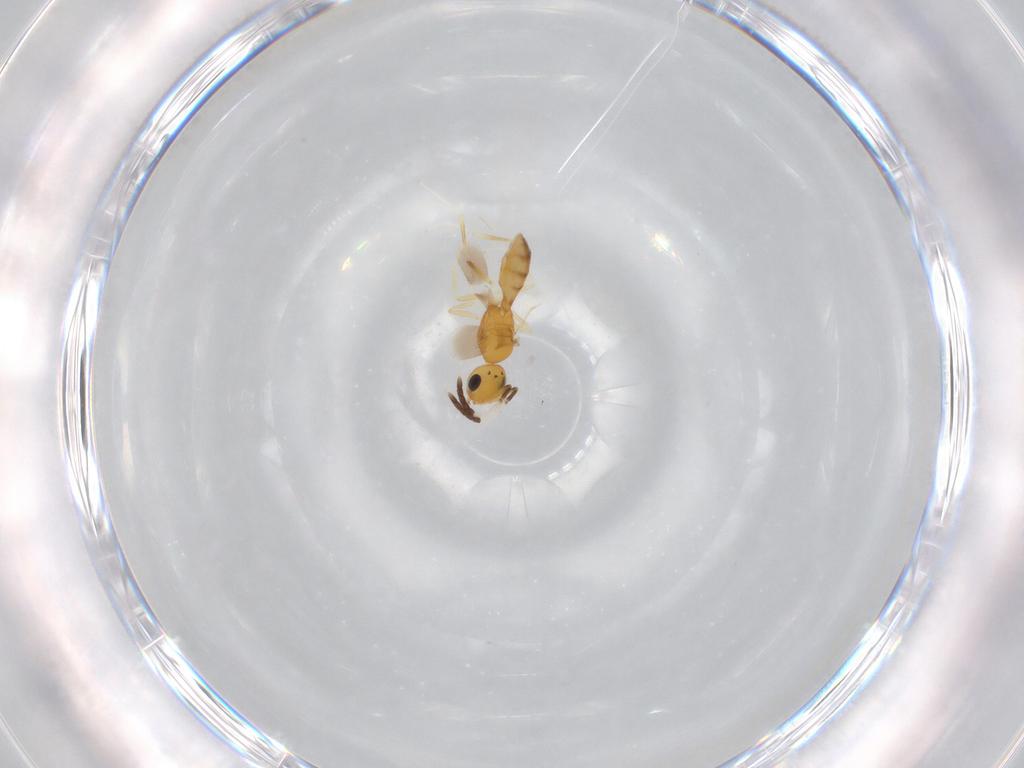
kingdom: Animalia
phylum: Arthropoda
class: Insecta
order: Hymenoptera
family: Scelionidae
